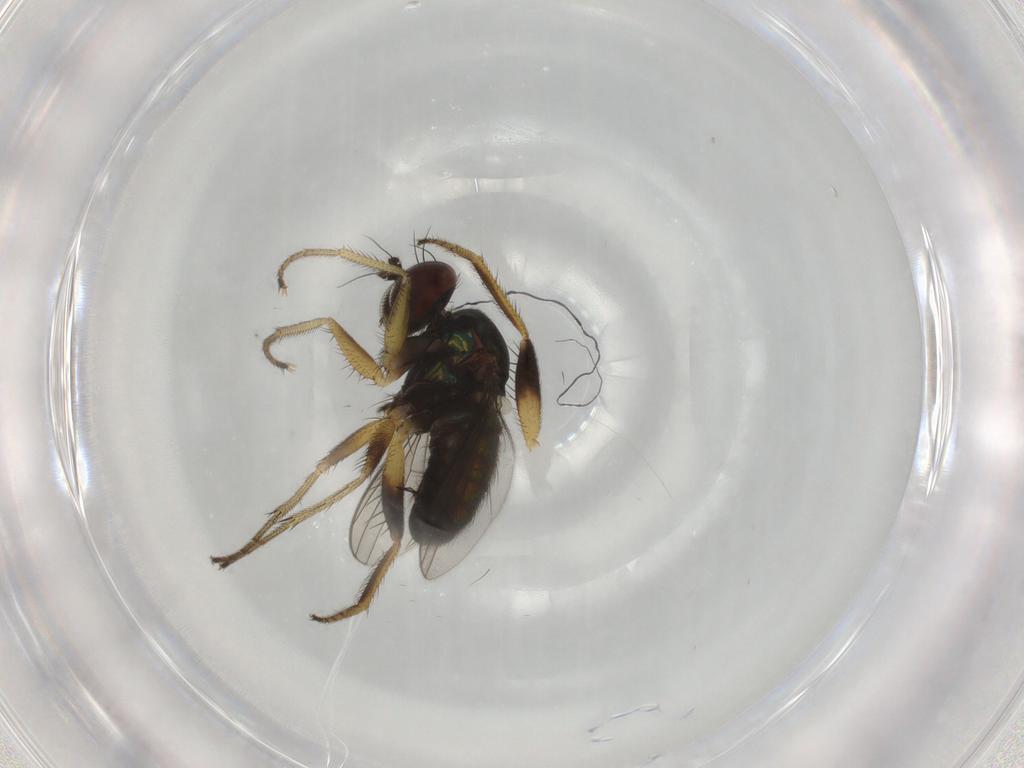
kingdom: Animalia
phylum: Arthropoda
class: Insecta
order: Diptera
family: Dolichopodidae
